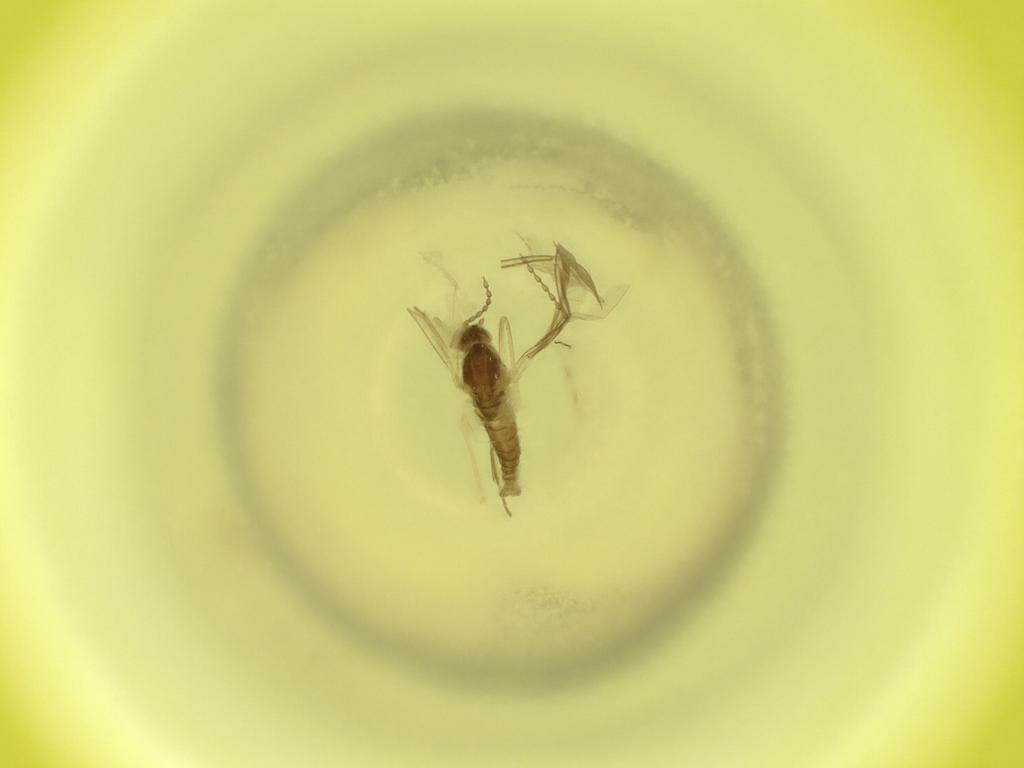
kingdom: Animalia
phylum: Arthropoda
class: Insecta
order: Diptera
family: Cecidomyiidae
